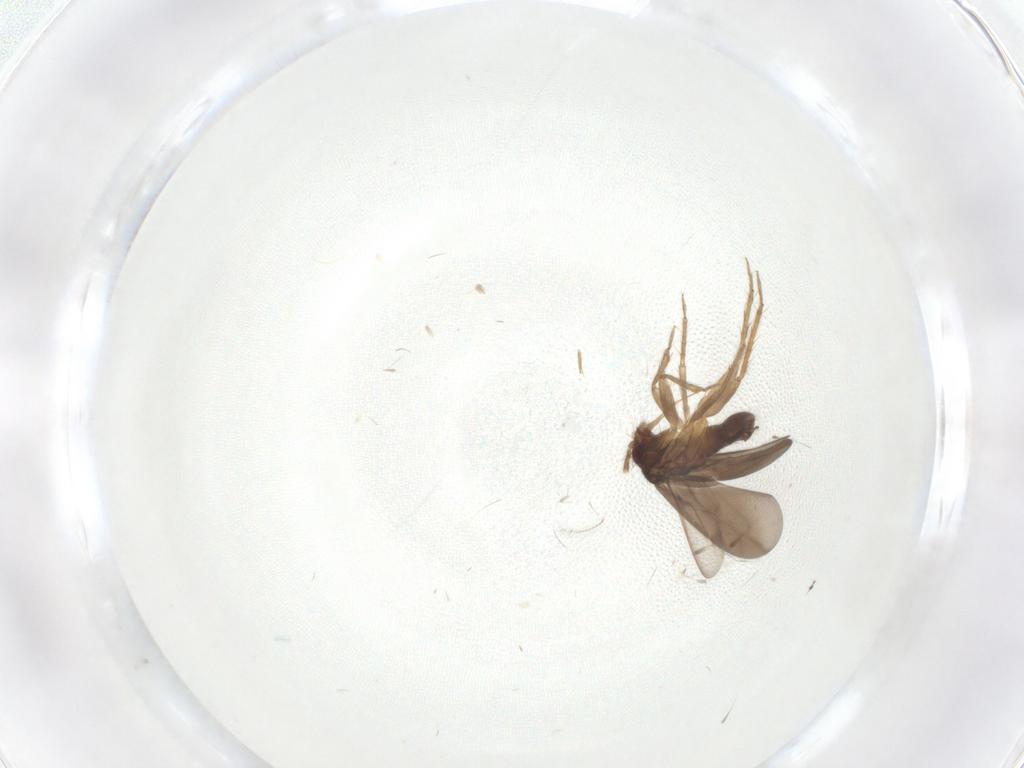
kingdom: Animalia
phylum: Arthropoda
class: Insecta
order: Hemiptera
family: Ceratocombidae
